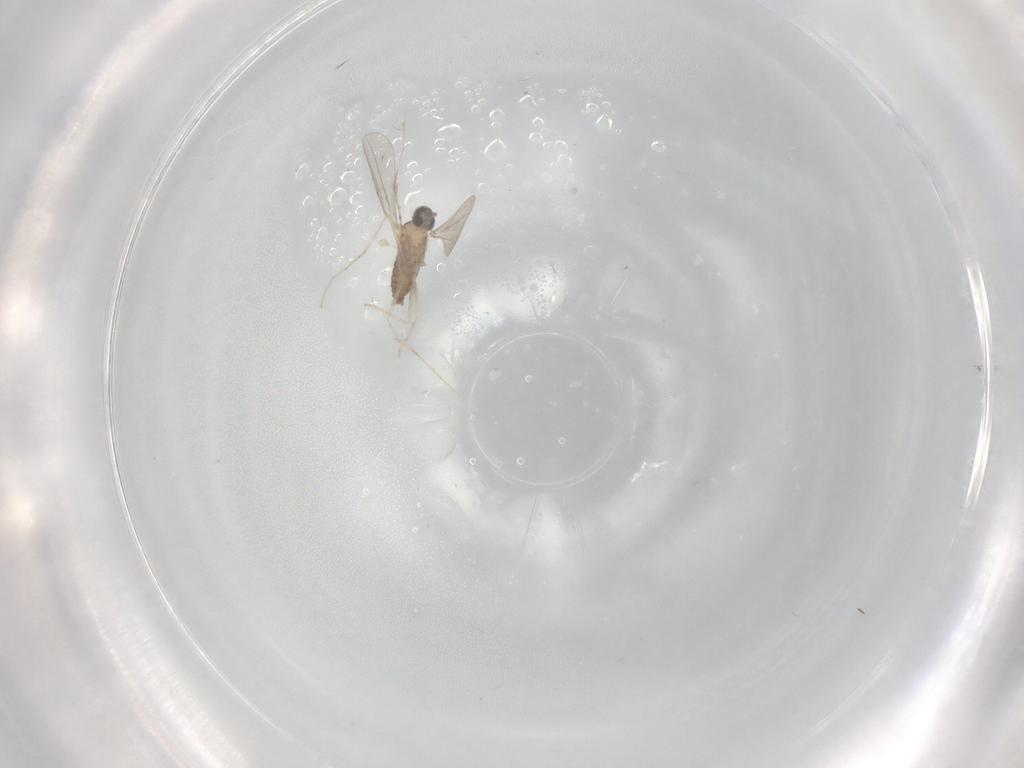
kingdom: Animalia
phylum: Arthropoda
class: Insecta
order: Diptera
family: Cecidomyiidae
